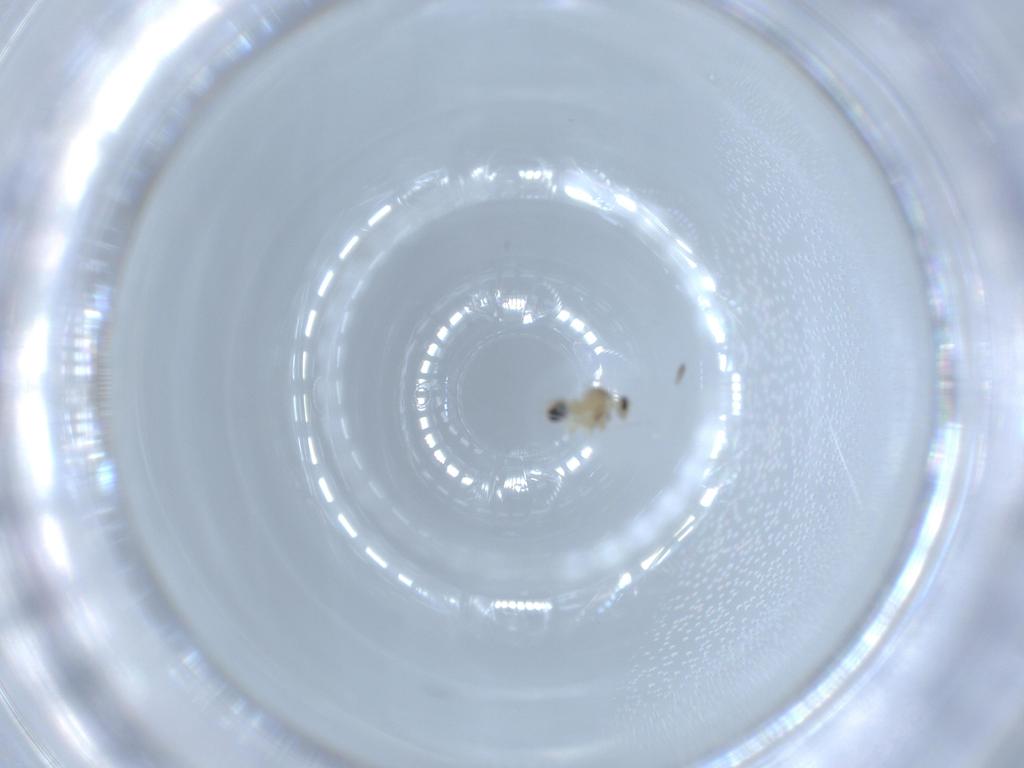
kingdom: Animalia
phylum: Arthropoda
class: Insecta
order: Diptera
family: Cecidomyiidae
